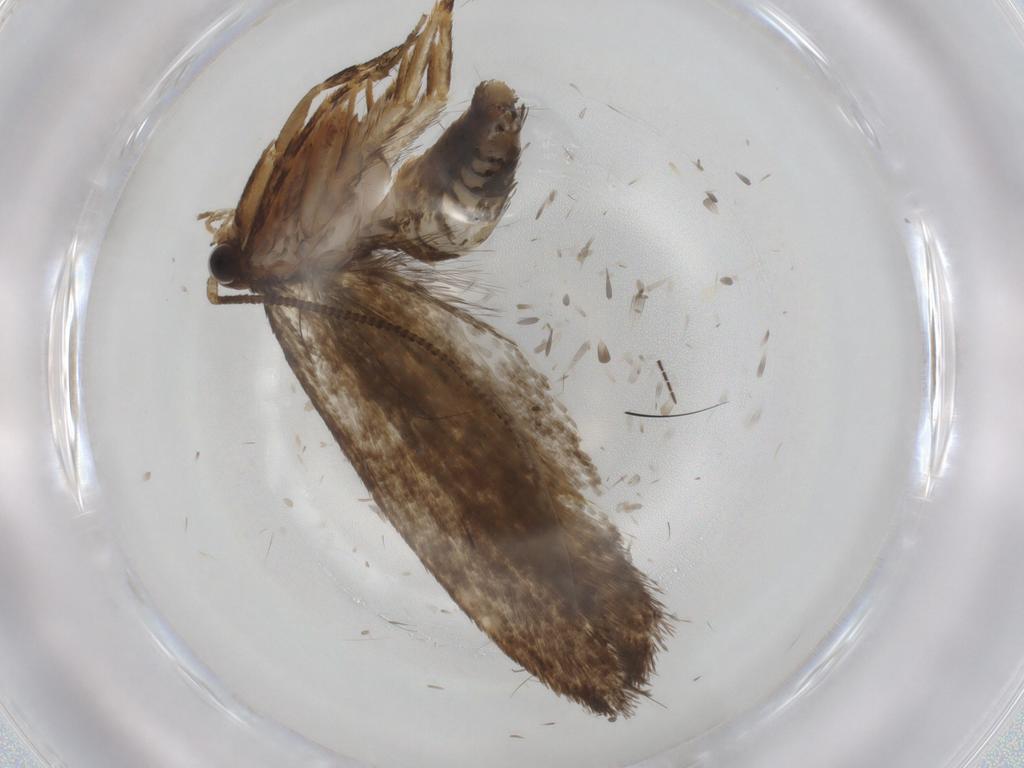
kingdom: Animalia
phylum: Arthropoda
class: Insecta
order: Lepidoptera
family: Crambidae
